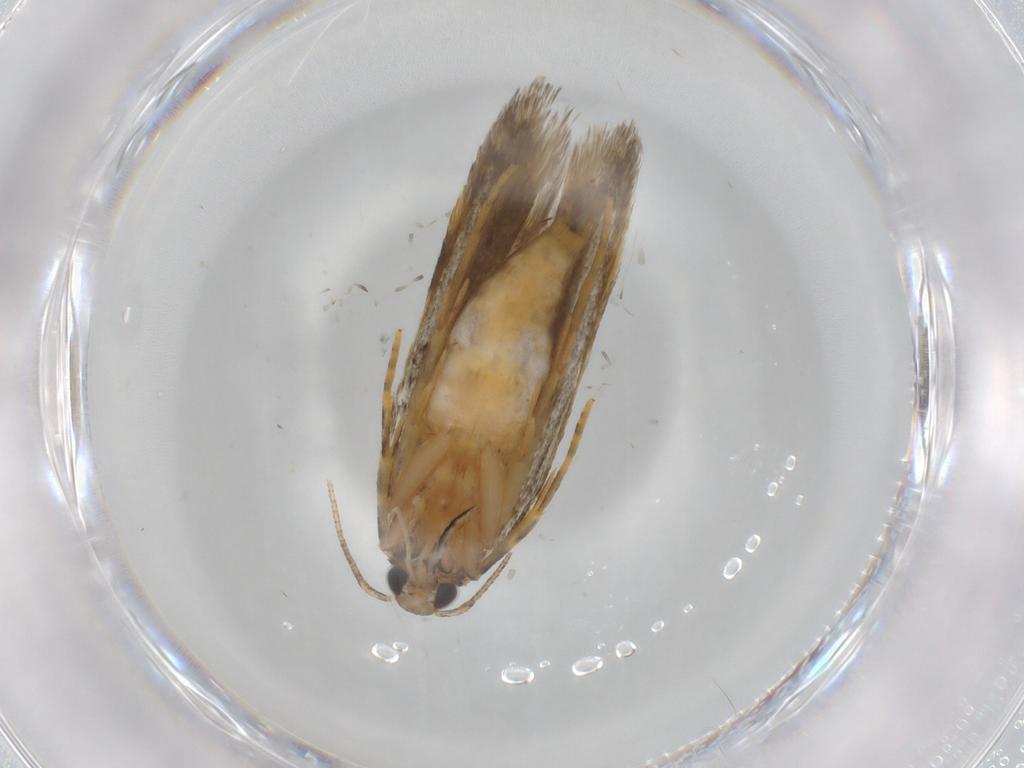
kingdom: Animalia
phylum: Arthropoda
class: Insecta
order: Lepidoptera
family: Autostichidae
